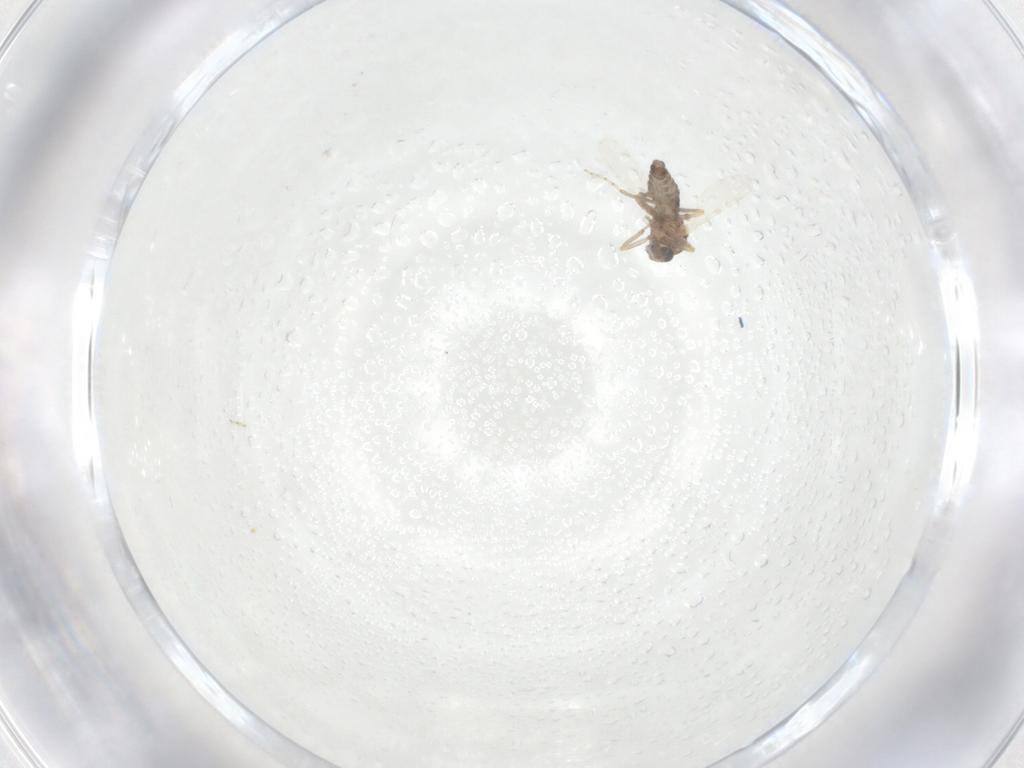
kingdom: Animalia
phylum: Arthropoda
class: Insecta
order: Diptera
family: Ceratopogonidae
